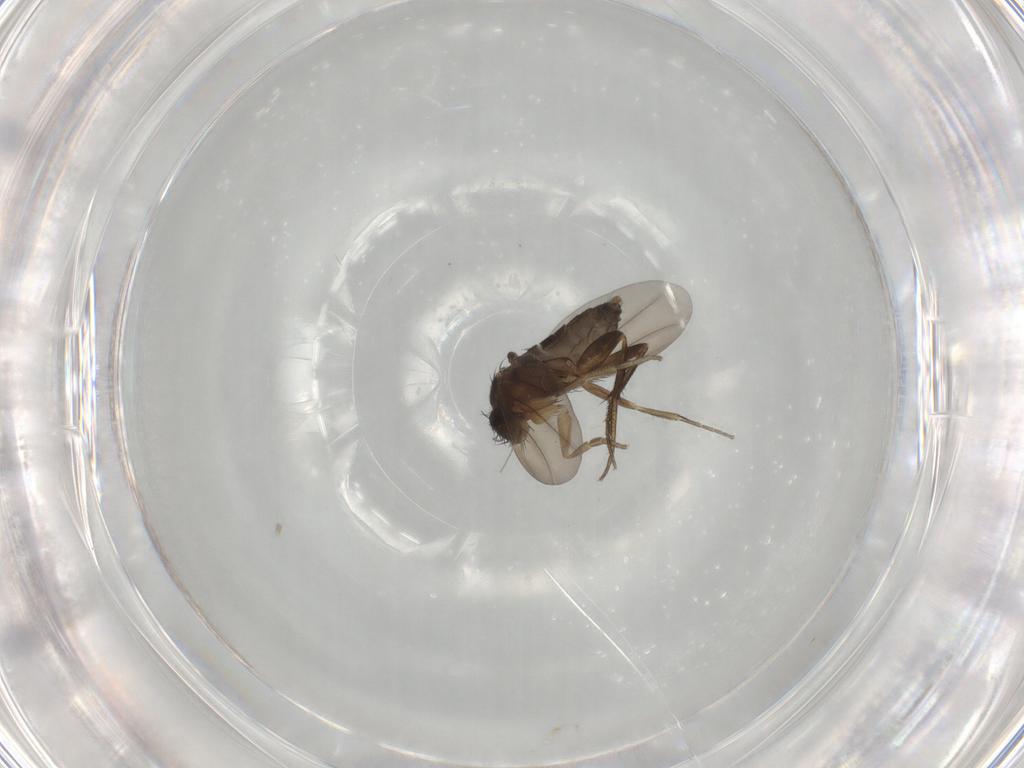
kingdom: Animalia
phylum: Arthropoda
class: Insecta
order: Diptera
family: Phoridae
